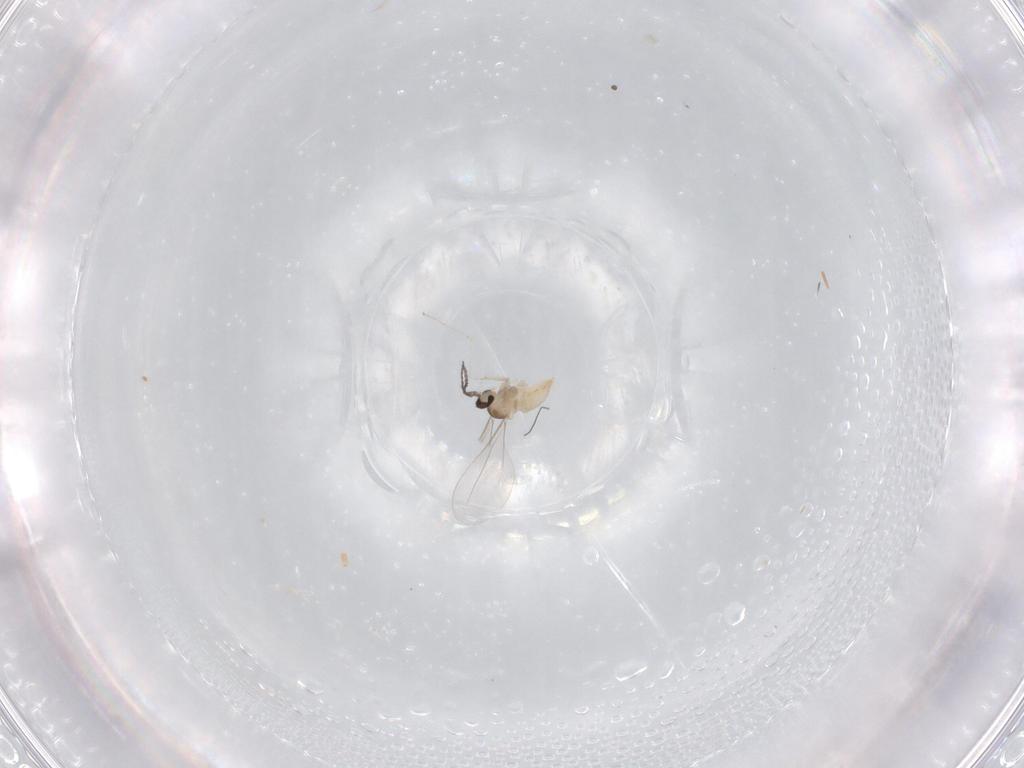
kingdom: Animalia
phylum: Arthropoda
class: Insecta
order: Diptera
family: Cecidomyiidae
